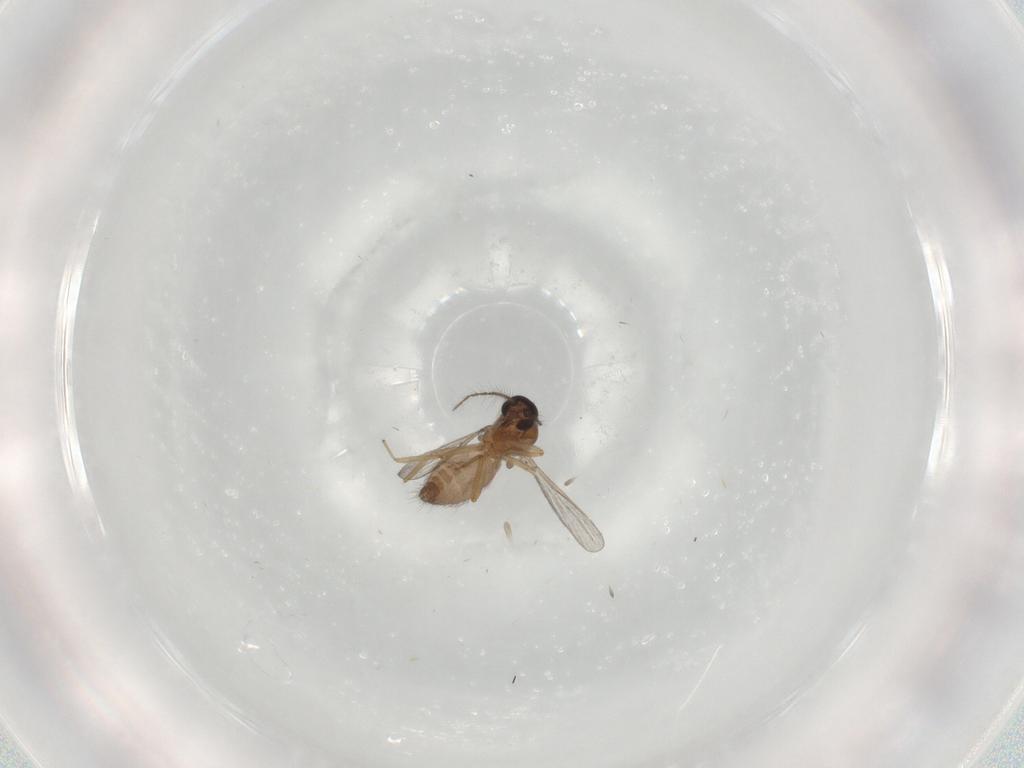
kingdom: Animalia
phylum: Arthropoda
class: Insecta
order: Diptera
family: Ceratopogonidae
